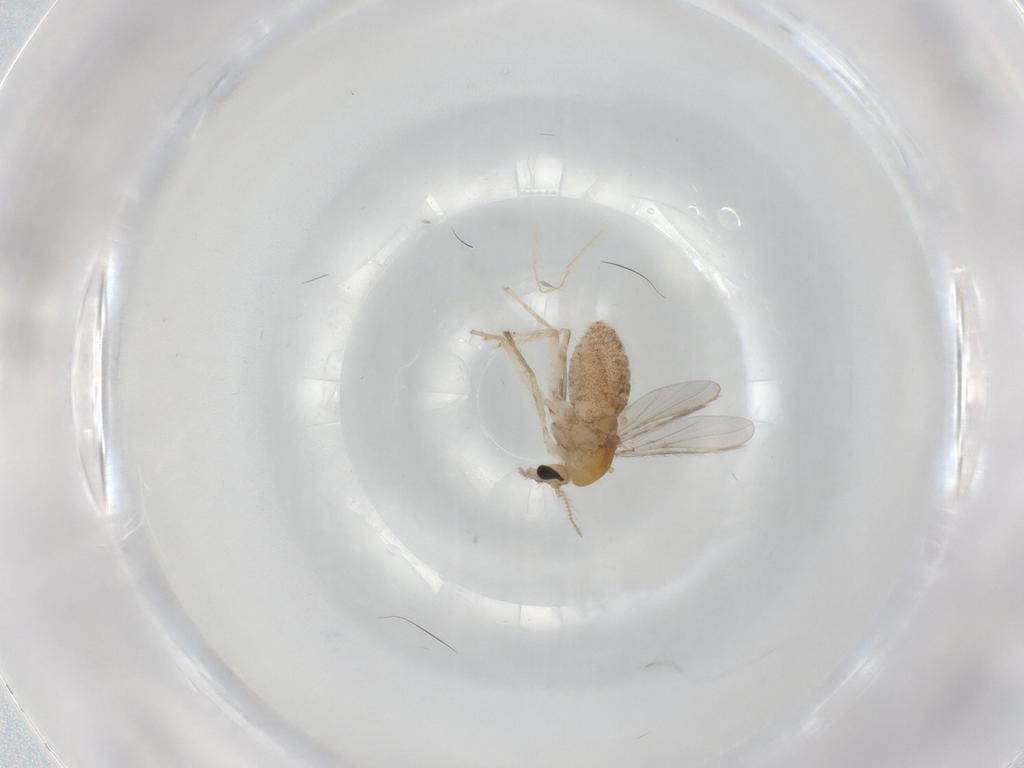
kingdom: Animalia
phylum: Arthropoda
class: Insecta
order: Diptera
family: Chironomidae
